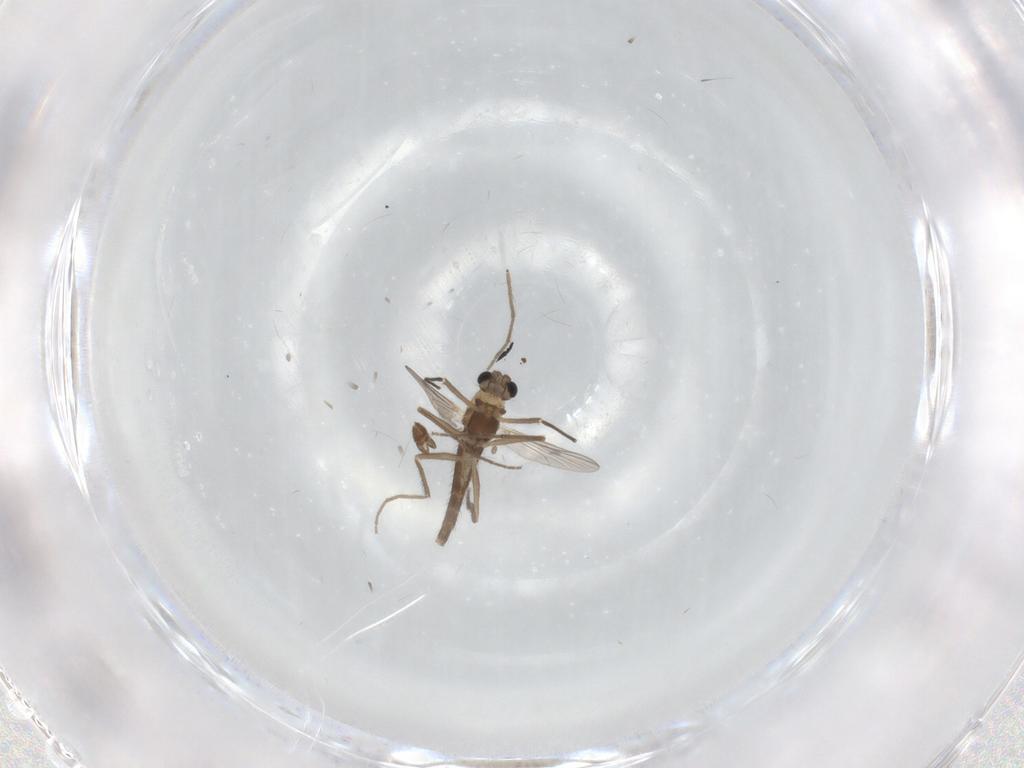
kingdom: Animalia
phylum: Arthropoda
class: Insecta
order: Diptera
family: Chironomidae
